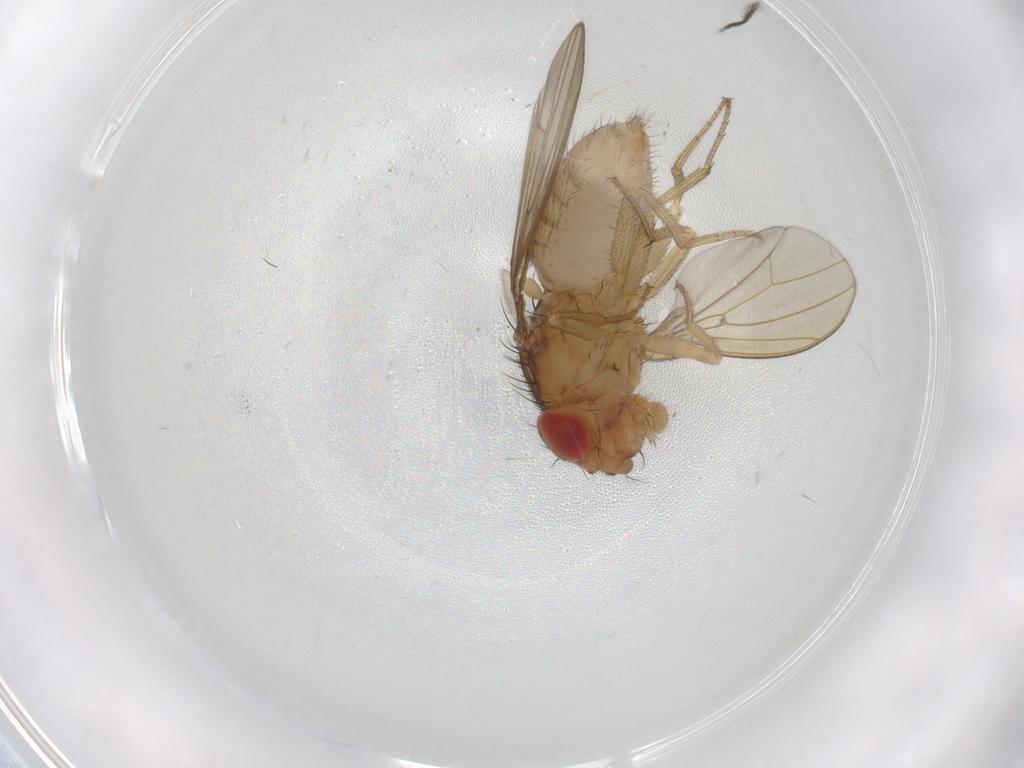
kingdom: Animalia
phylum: Arthropoda
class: Insecta
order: Diptera
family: Drosophilidae
